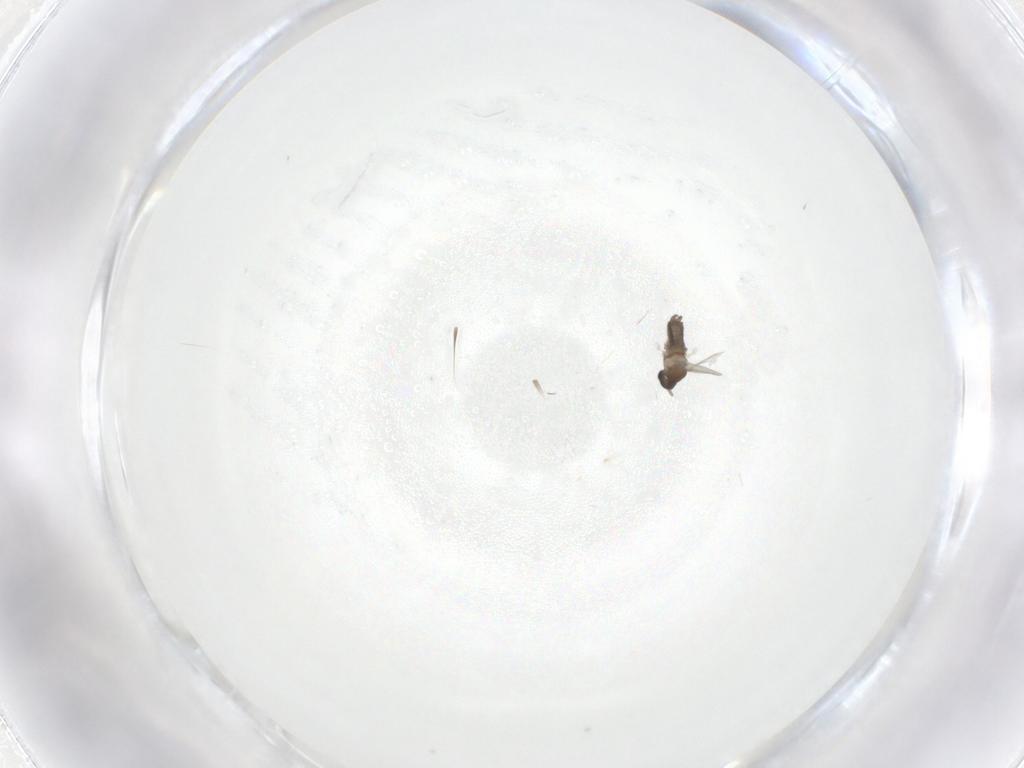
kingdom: Animalia
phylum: Arthropoda
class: Insecta
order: Diptera
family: Cecidomyiidae
